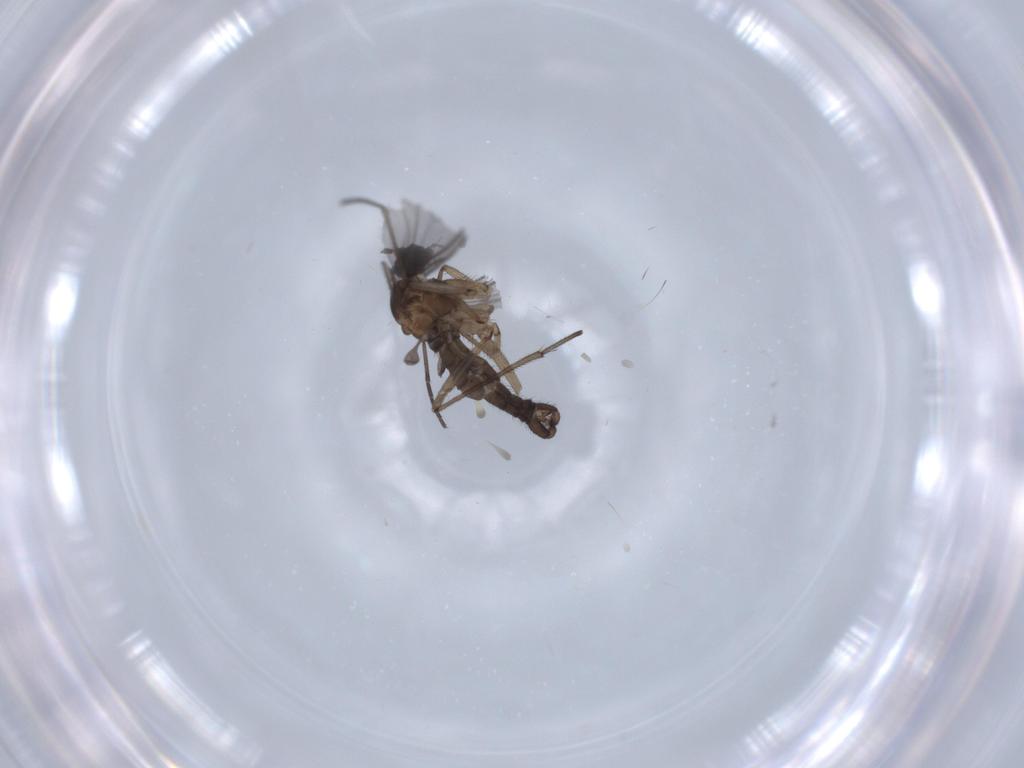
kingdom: Animalia
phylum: Arthropoda
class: Insecta
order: Diptera
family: Sciaridae
